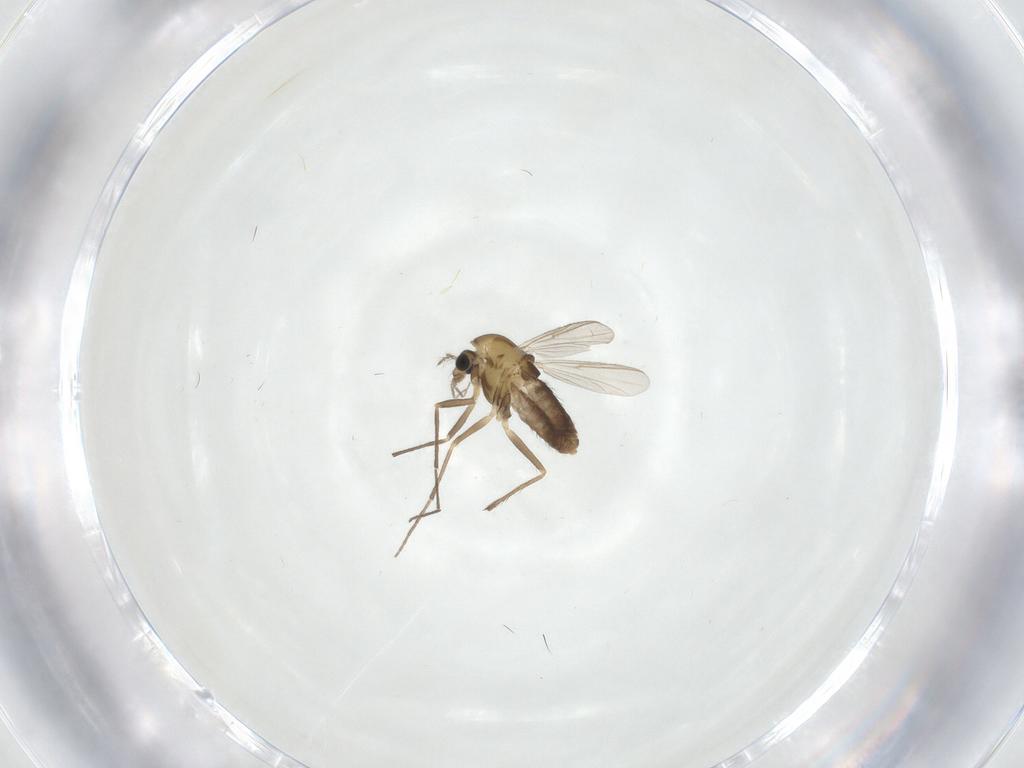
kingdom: Animalia
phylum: Arthropoda
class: Insecta
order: Diptera
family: Chironomidae
